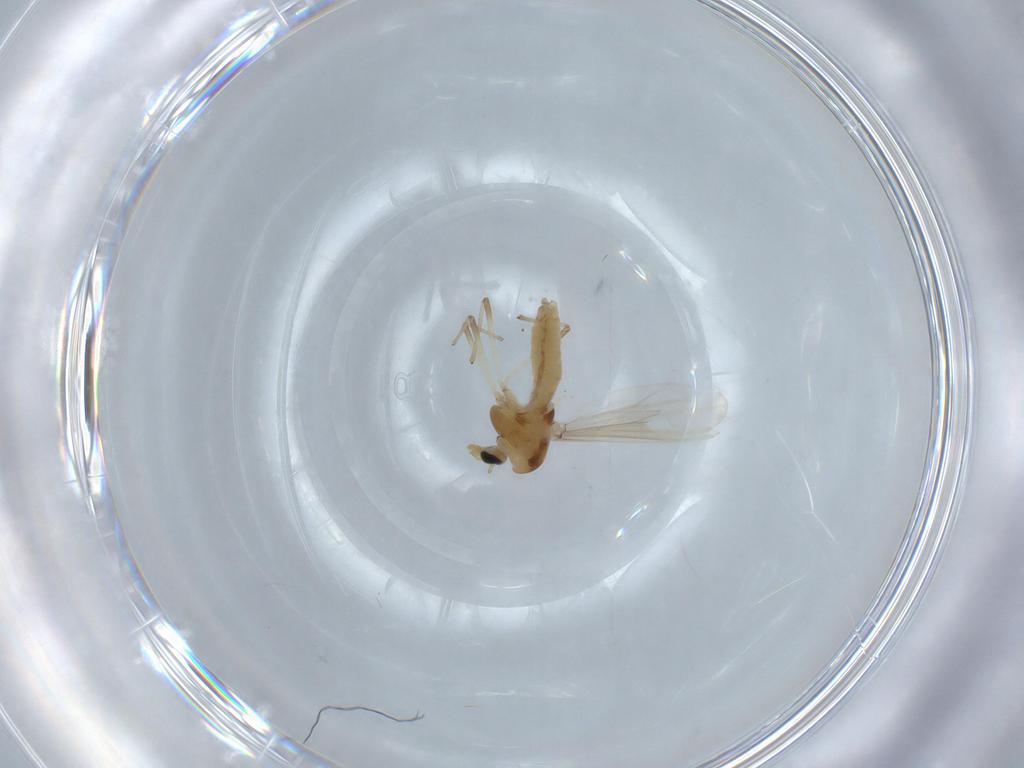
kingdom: Animalia
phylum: Arthropoda
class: Insecta
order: Diptera
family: Chironomidae
